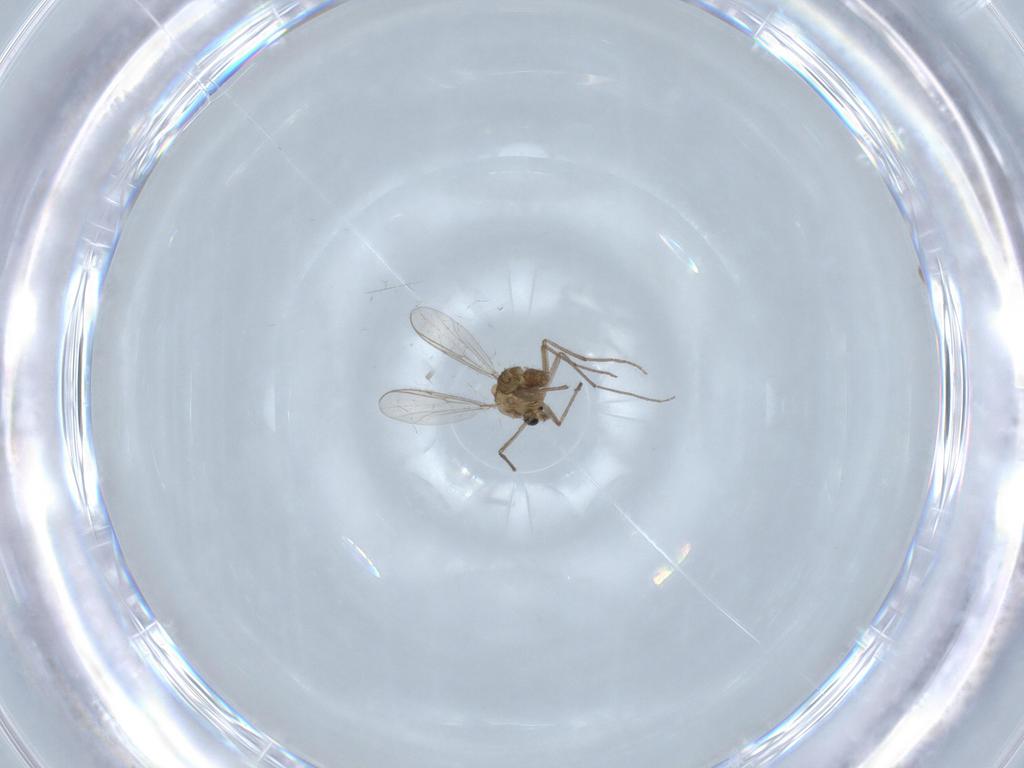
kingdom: Animalia
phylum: Arthropoda
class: Insecta
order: Diptera
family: Chironomidae
